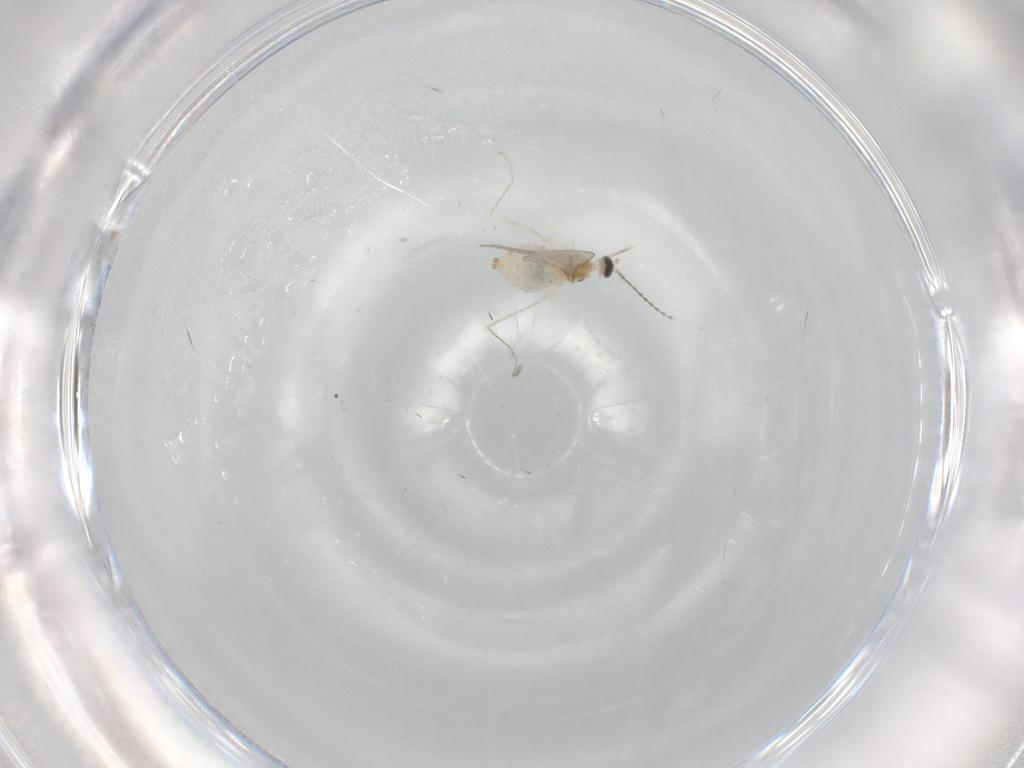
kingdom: Animalia
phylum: Arthropoda
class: Insecta
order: Diptera
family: Cecidomyiidae
